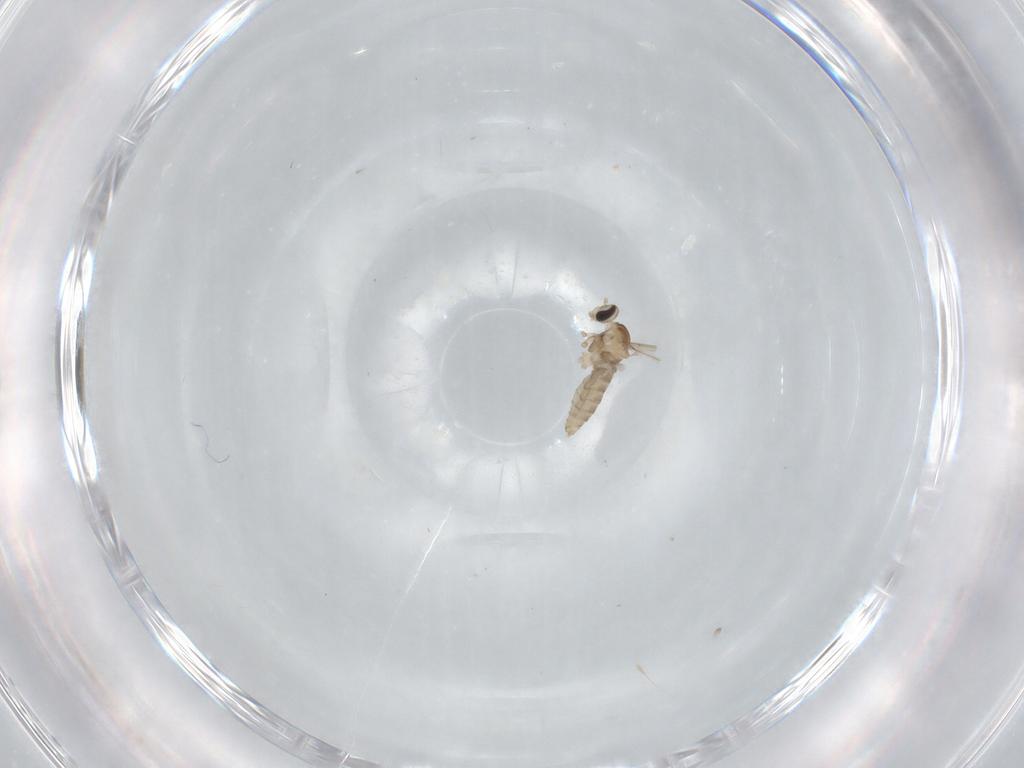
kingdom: Animalia
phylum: Arthropoda
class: Insecta
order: Diptera
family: Cecidomyiidae
